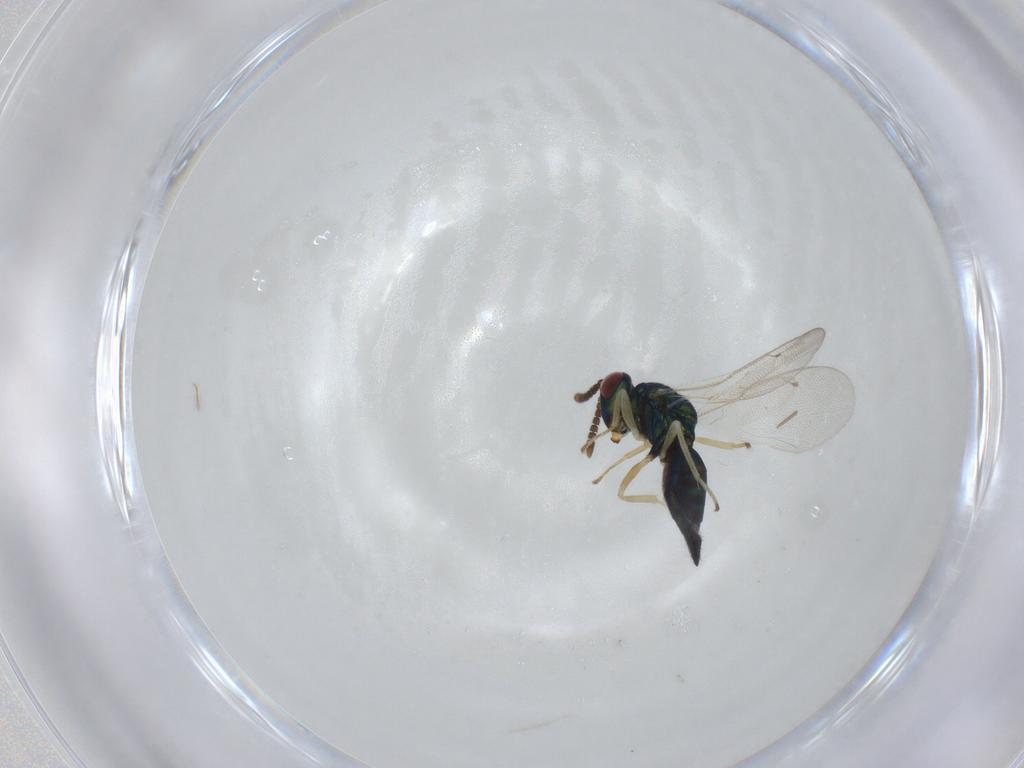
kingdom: Animalia
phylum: Arthropoda
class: Insecta
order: Hymenoptera
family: Pteromalidae
